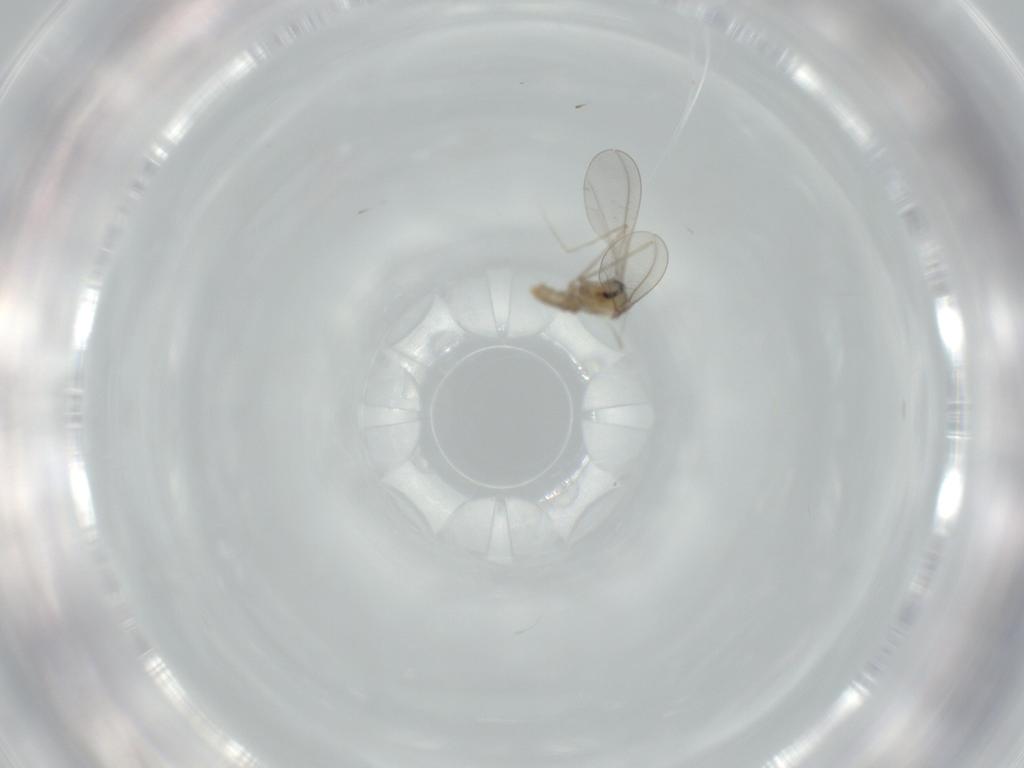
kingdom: Animalia
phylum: Arthropoda
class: Insecta
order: Diptera
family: Cecidomyiidae
